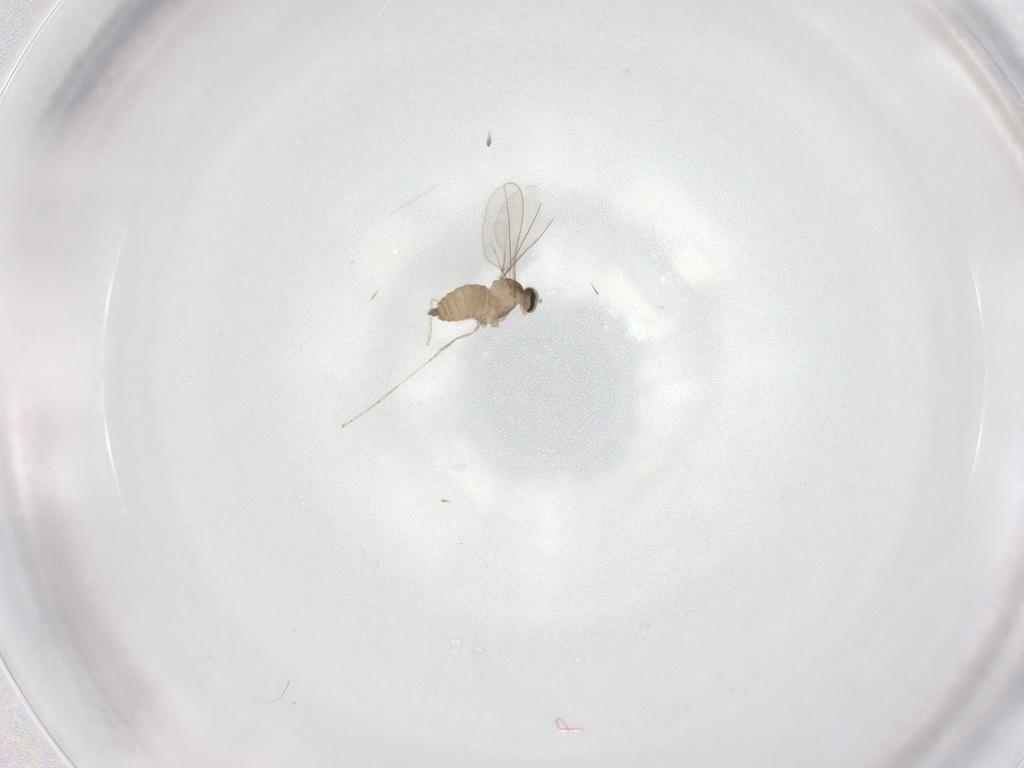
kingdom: Animalia
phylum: Arthropoda
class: Insecta
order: Diptera
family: Cecidomyiidae
